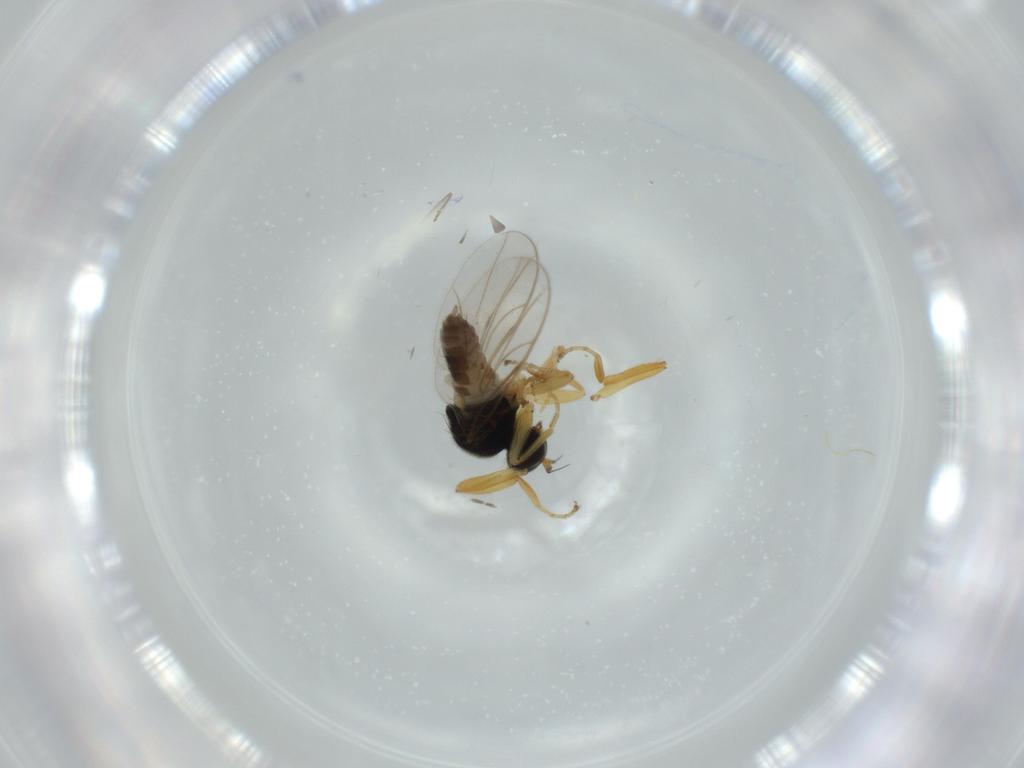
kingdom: Animalia
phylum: Arthropoda
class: Insecta
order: Diptera
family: Hybotidae
